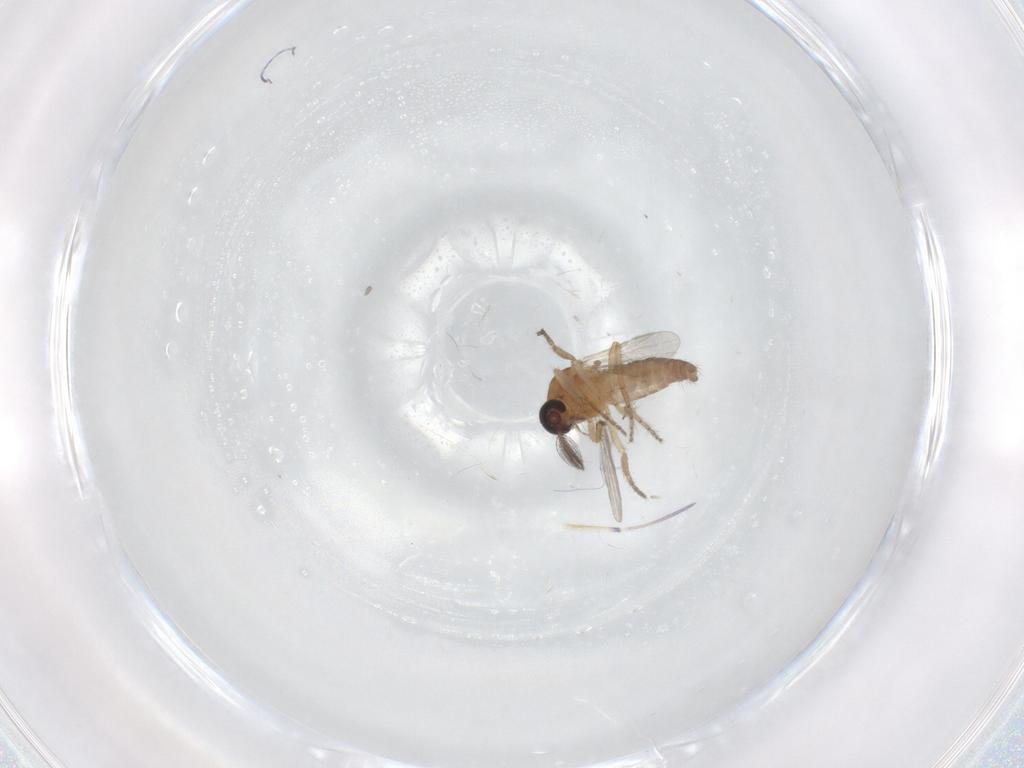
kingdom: Animalia
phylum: Arthropoda
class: Insecta
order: Diptera
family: Ceratopogonidae
